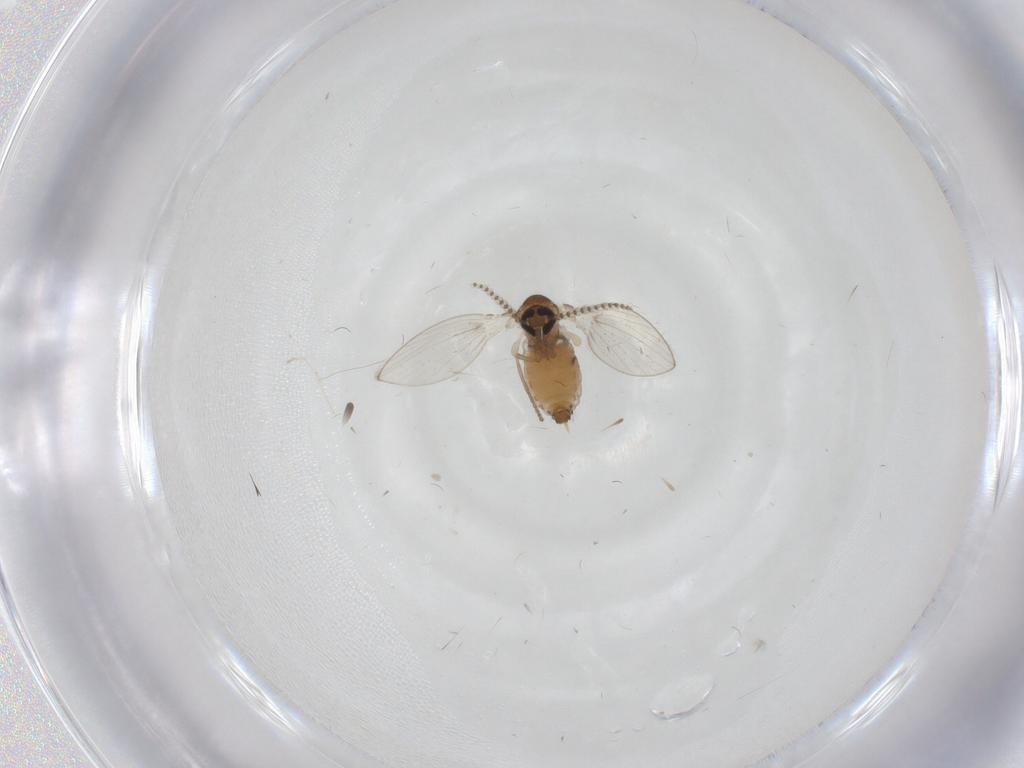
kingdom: Animalia
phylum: Arthropoda
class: Insecta
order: Diptera
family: Psychodidae
